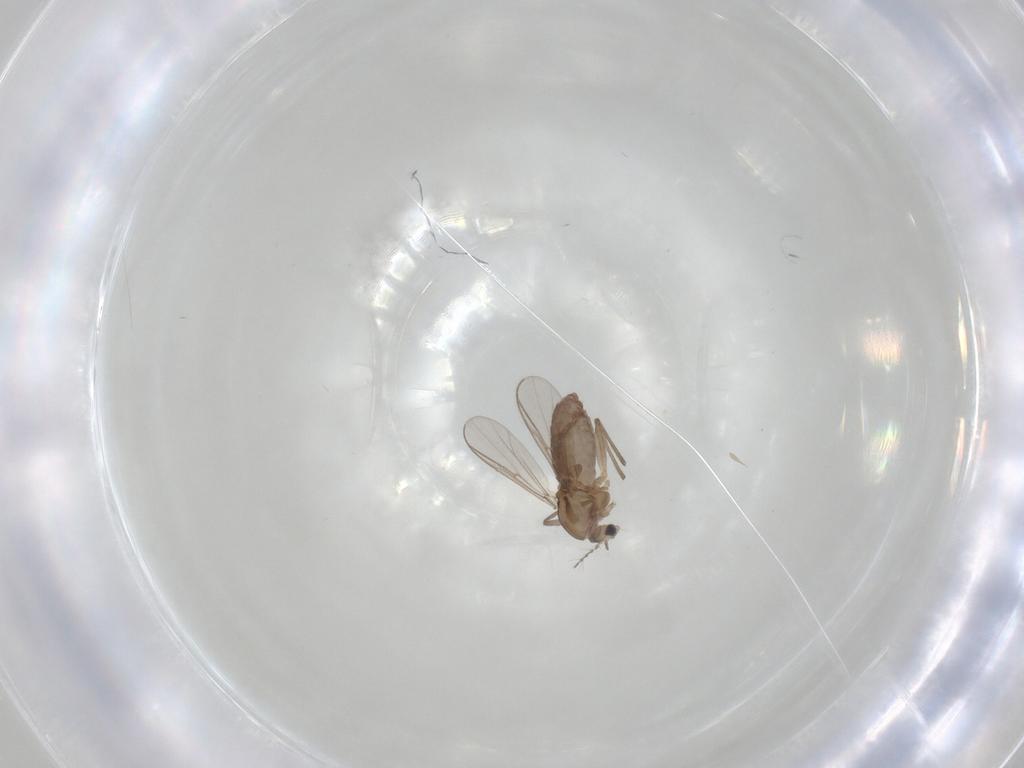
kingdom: Animalia
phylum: Arthropoda
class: Insecta
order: Diptera
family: Chironomidae
